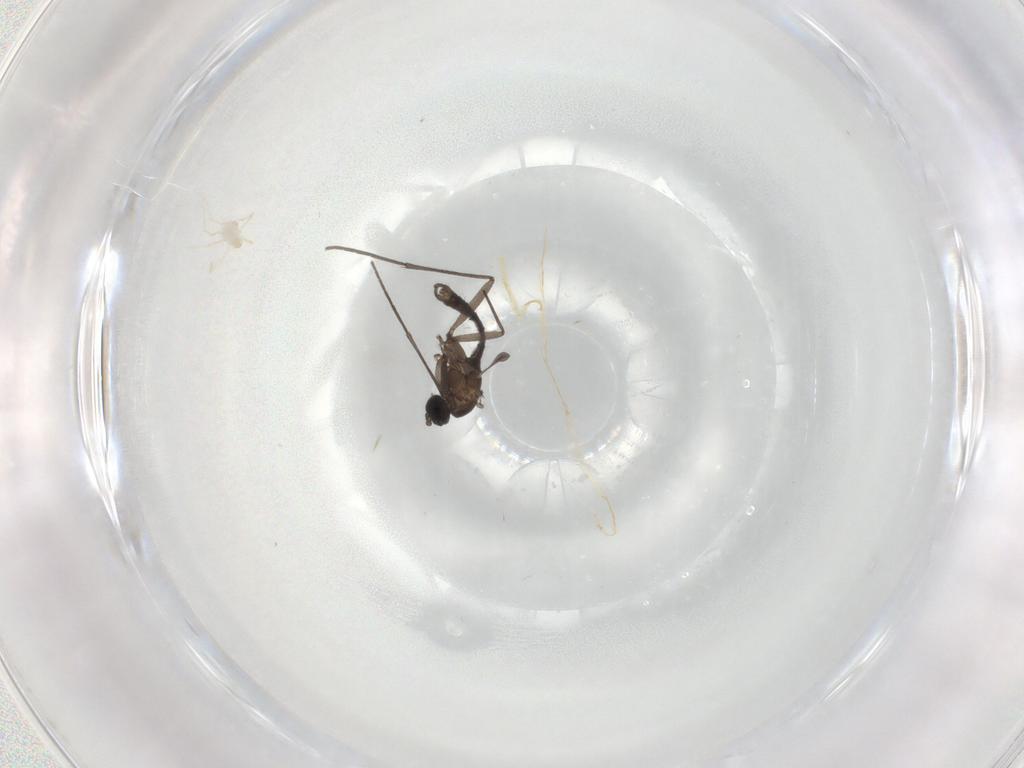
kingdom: Animalia
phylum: Arthropoda
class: Insecta
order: Diptera
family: Sciaridae
